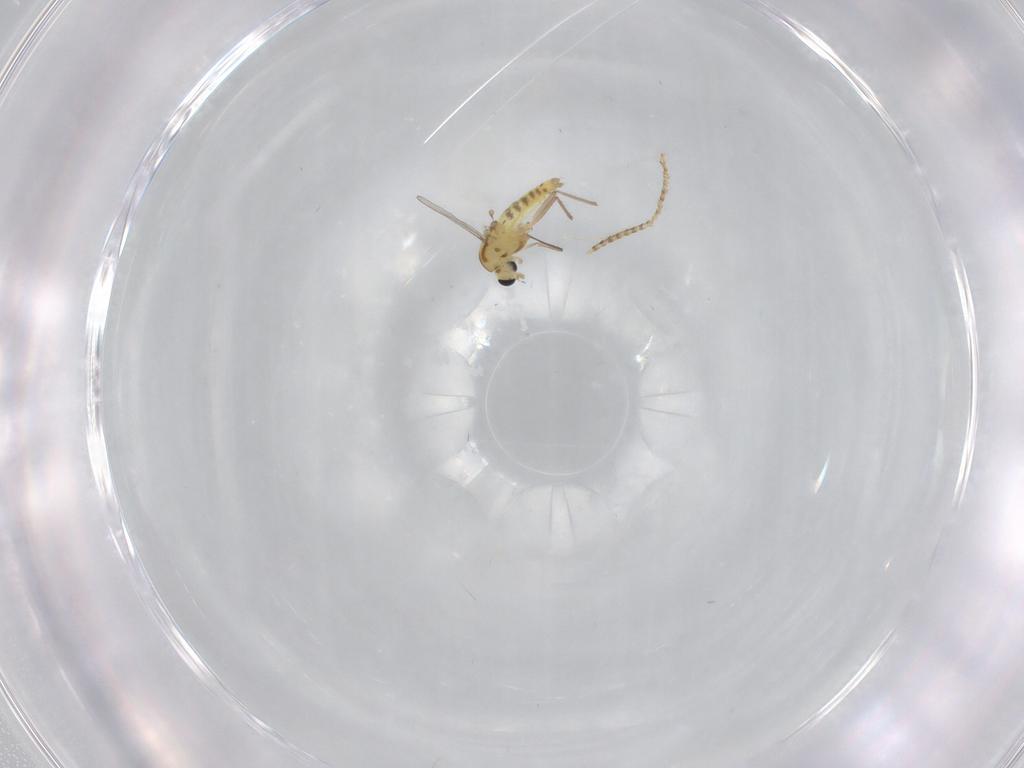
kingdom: Animalia
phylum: Arthropoda
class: Insecta
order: Diptera
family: Chironomidae
